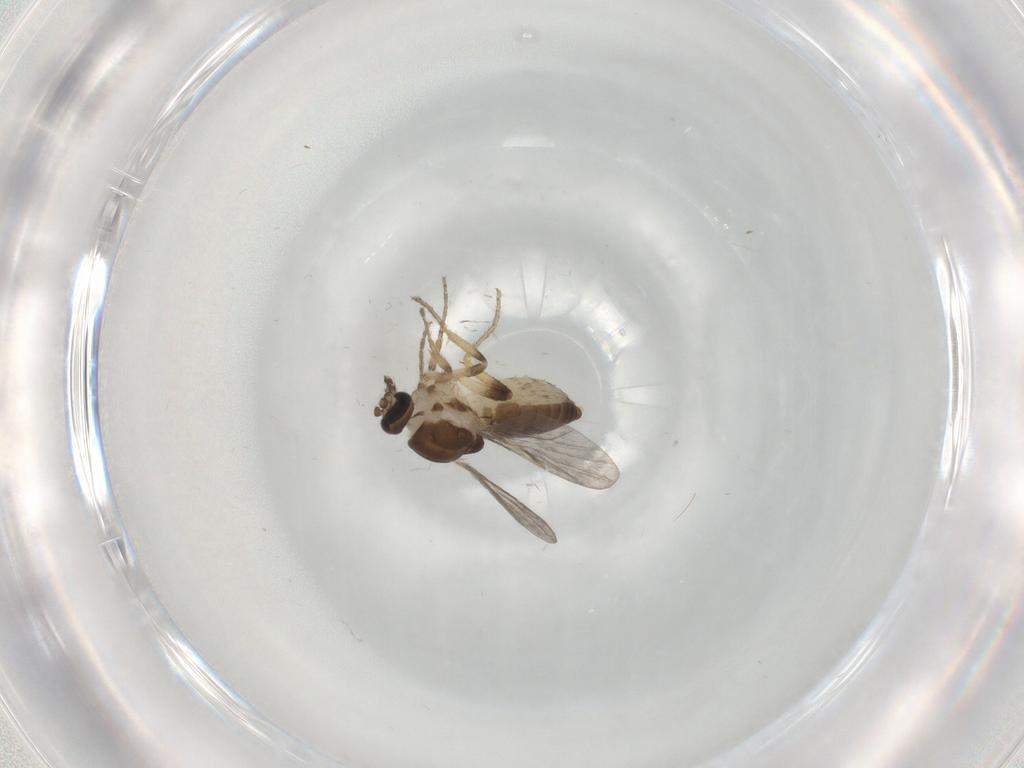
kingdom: Animalia
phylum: Arthropoda
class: Insecta
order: Diptera
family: Ceratopogonidae
